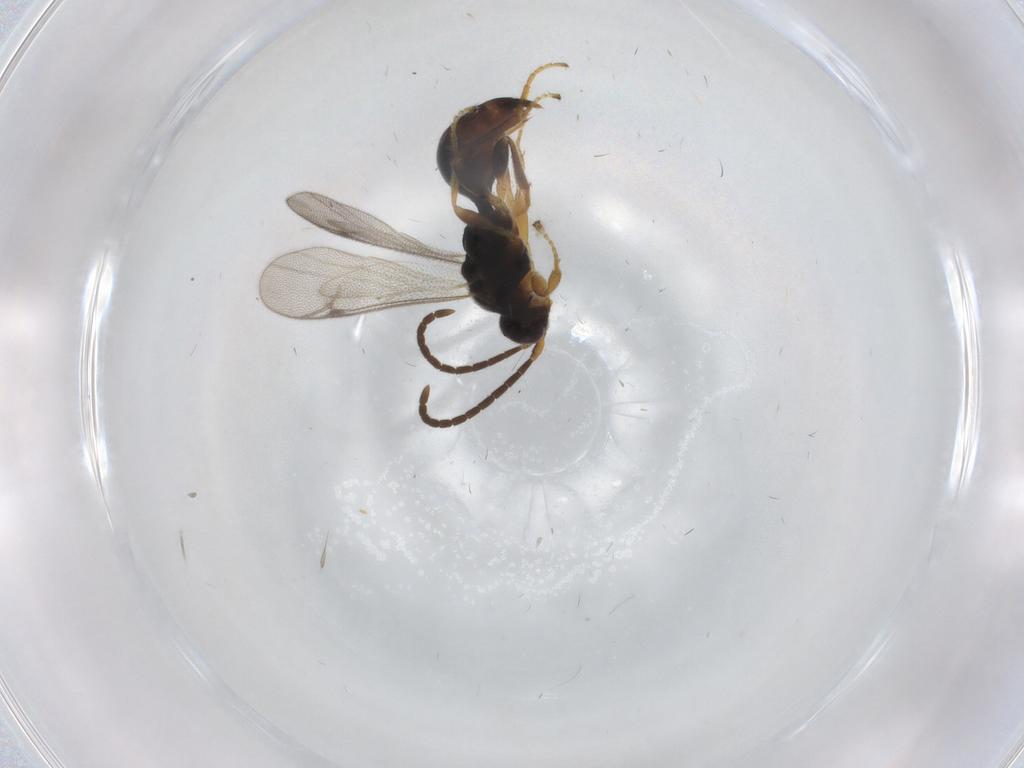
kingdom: Animalia
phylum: Arthropoda
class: Insecta
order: Hymenoptera
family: Proctotrupidae
